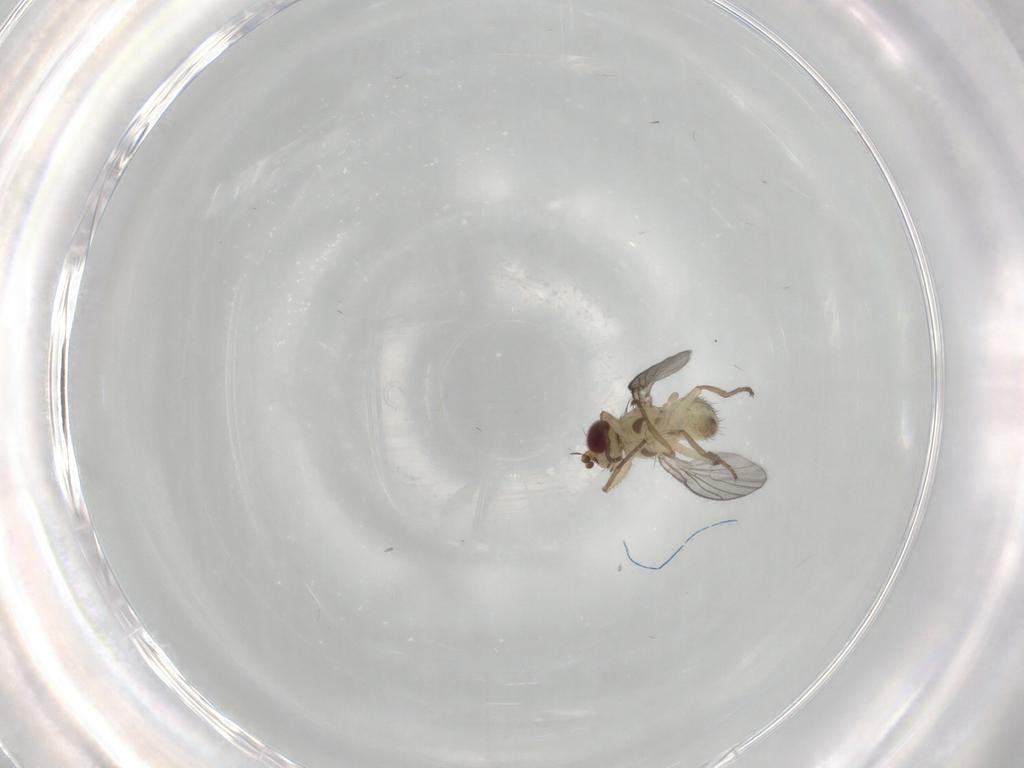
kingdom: Animalia
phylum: Arthropoda
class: Insecta
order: Diptera
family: Agromyzidae
